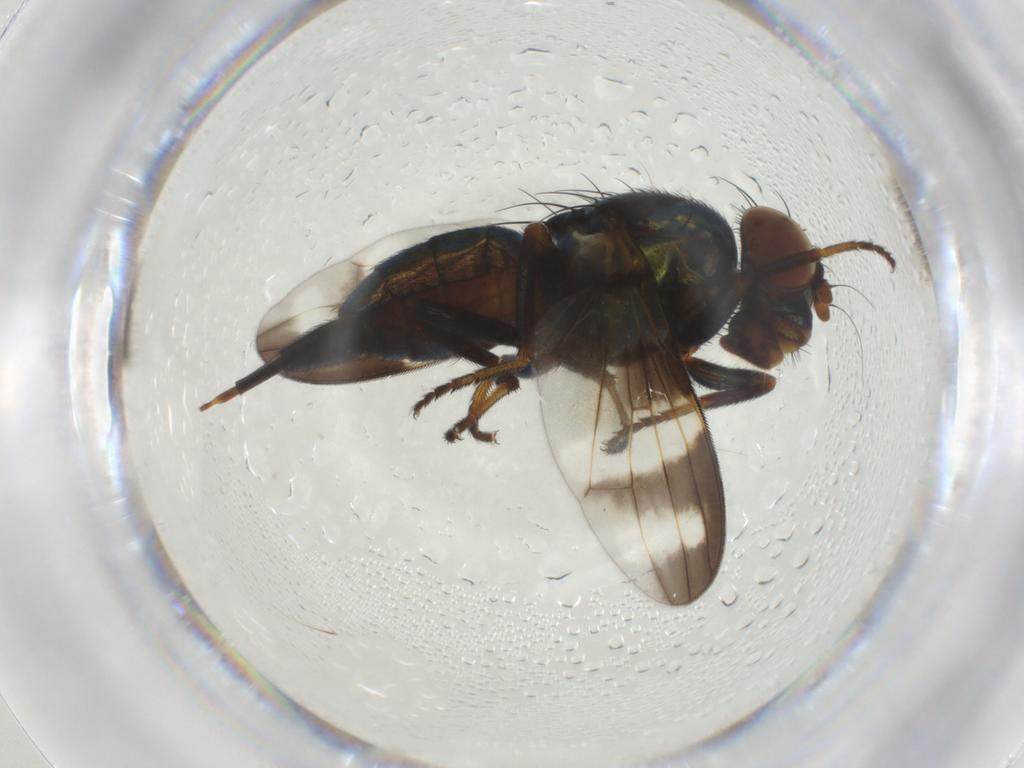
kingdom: Animalia
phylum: Arthropoda
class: Insecta
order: Diptera
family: Ulidiidae
